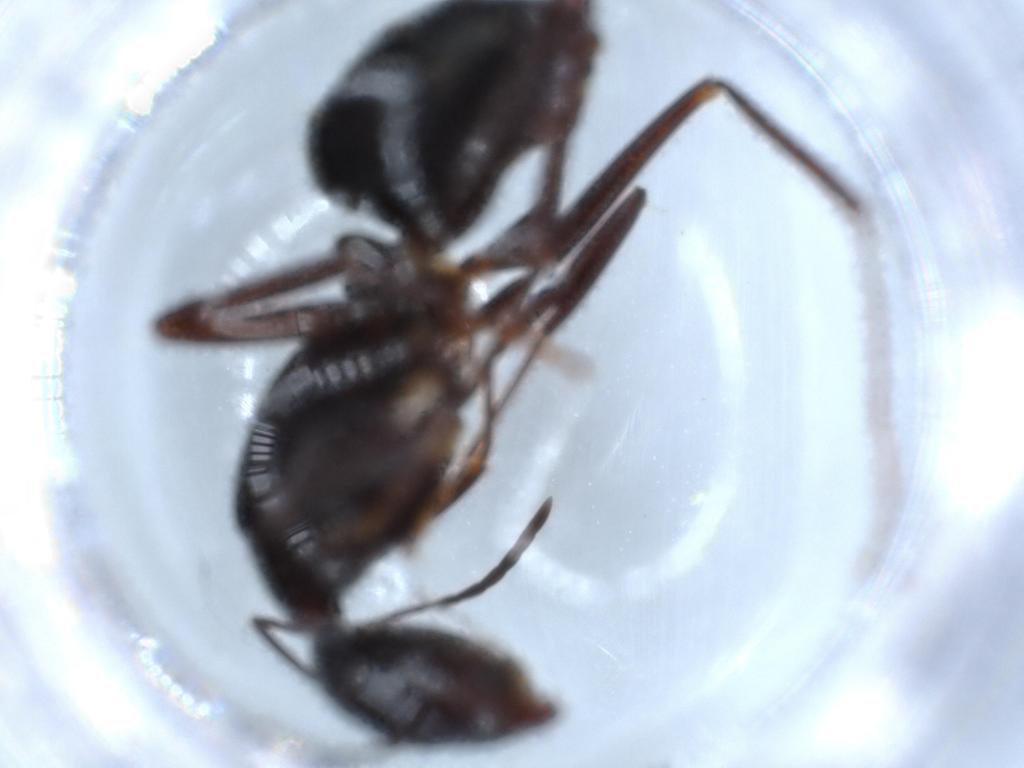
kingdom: Animalia
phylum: Arthropoda
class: Insecta
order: Hymenoptera
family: Formicidae
